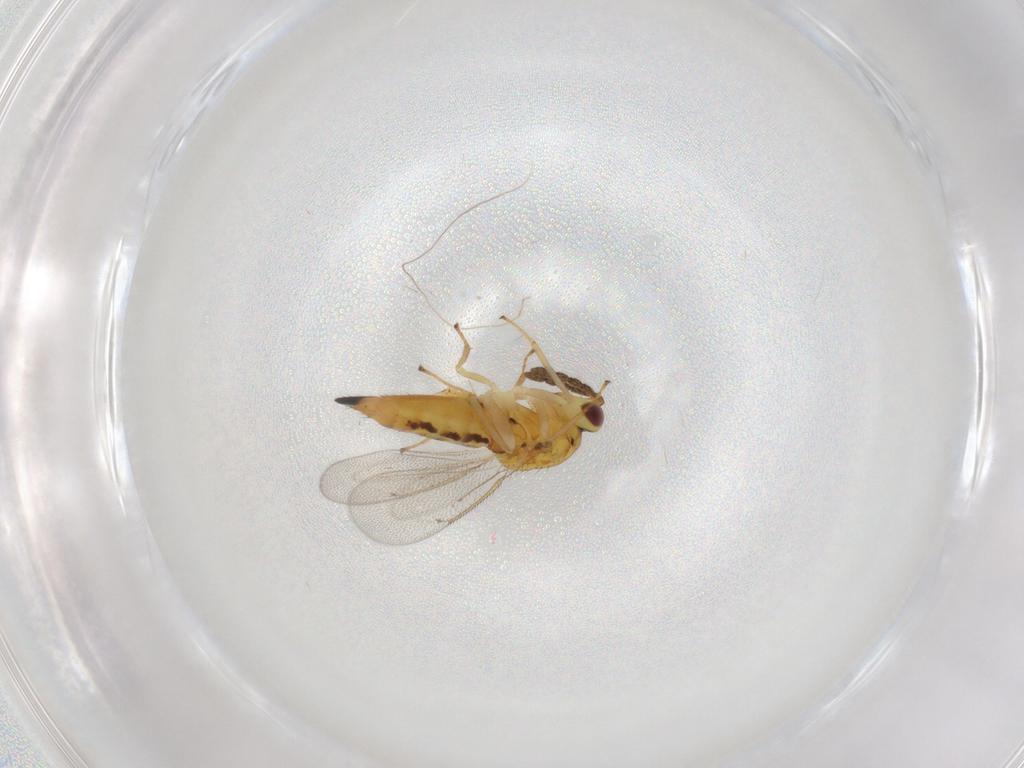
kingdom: Animalia
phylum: Arthropoda
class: Insecta
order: Hymenoptera
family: Eulophidae
